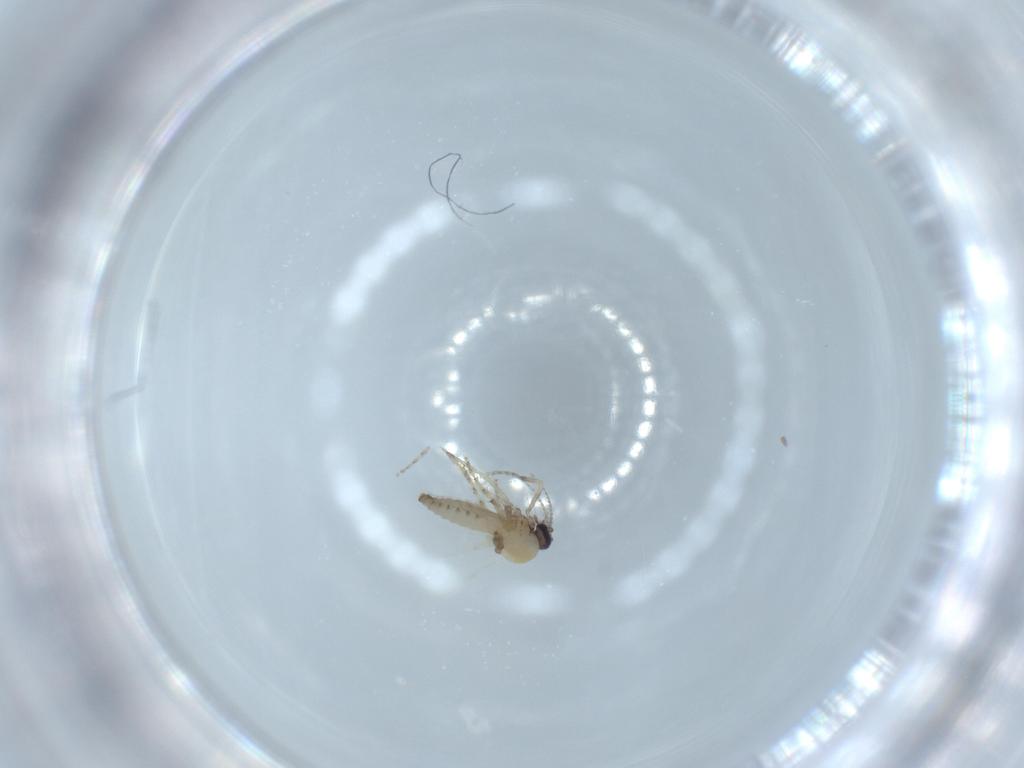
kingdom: Animalia
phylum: Arthropoda
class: Insecta
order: Diptera
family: Ceratopogonidae
